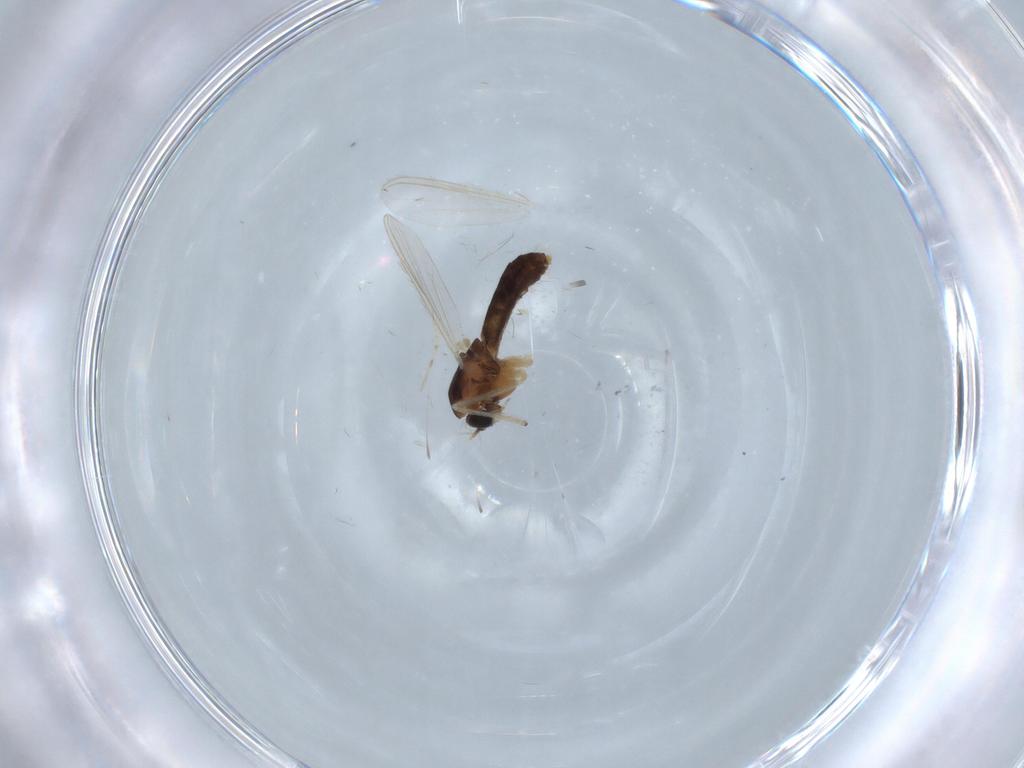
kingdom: Animalia
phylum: Arthropoda
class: Insecta
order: Diptera
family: Chironomidae
